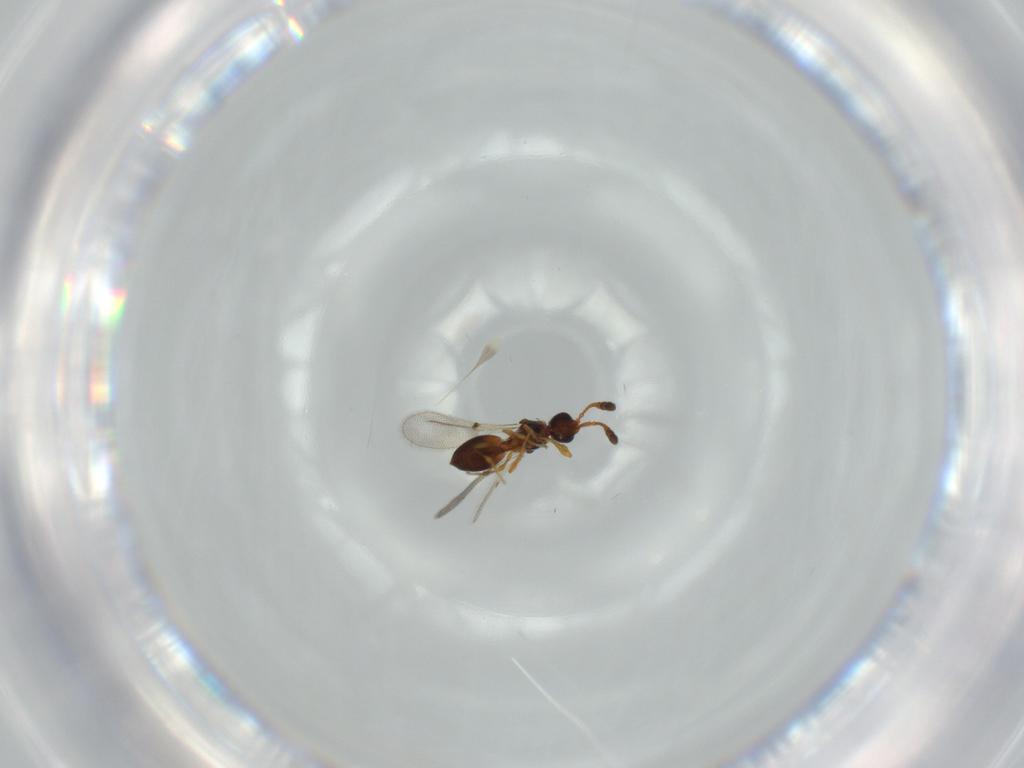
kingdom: Animalia
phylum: Arthropoda
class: Insecta
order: Hymenoptera
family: Diapriidae
